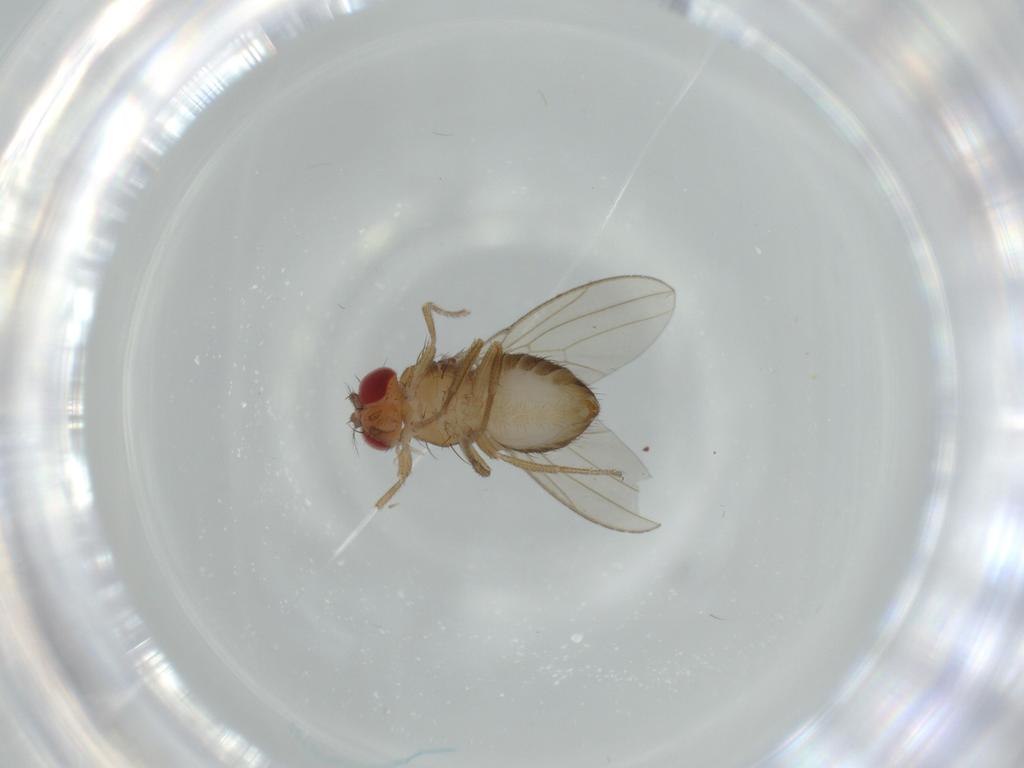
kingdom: Animalia
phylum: Arthropoda
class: Insecta
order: Diptera
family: Drosophilidae
